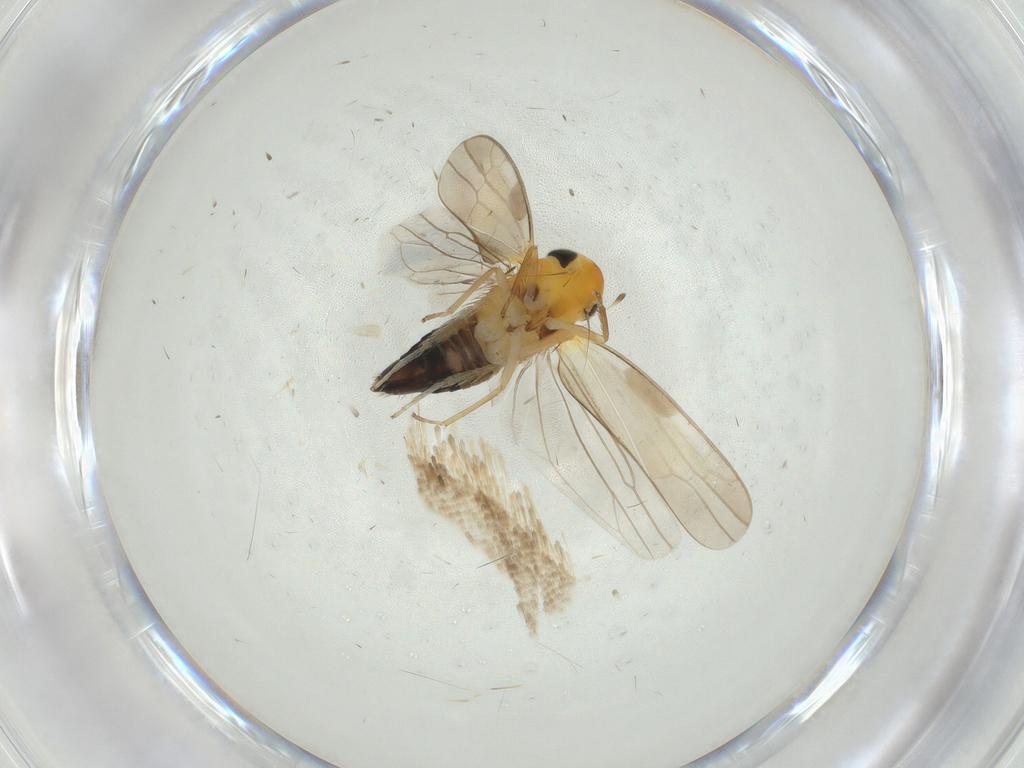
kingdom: Animalia
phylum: Arthropoda
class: Insecta
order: Hemiptera
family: Cicadellidae
